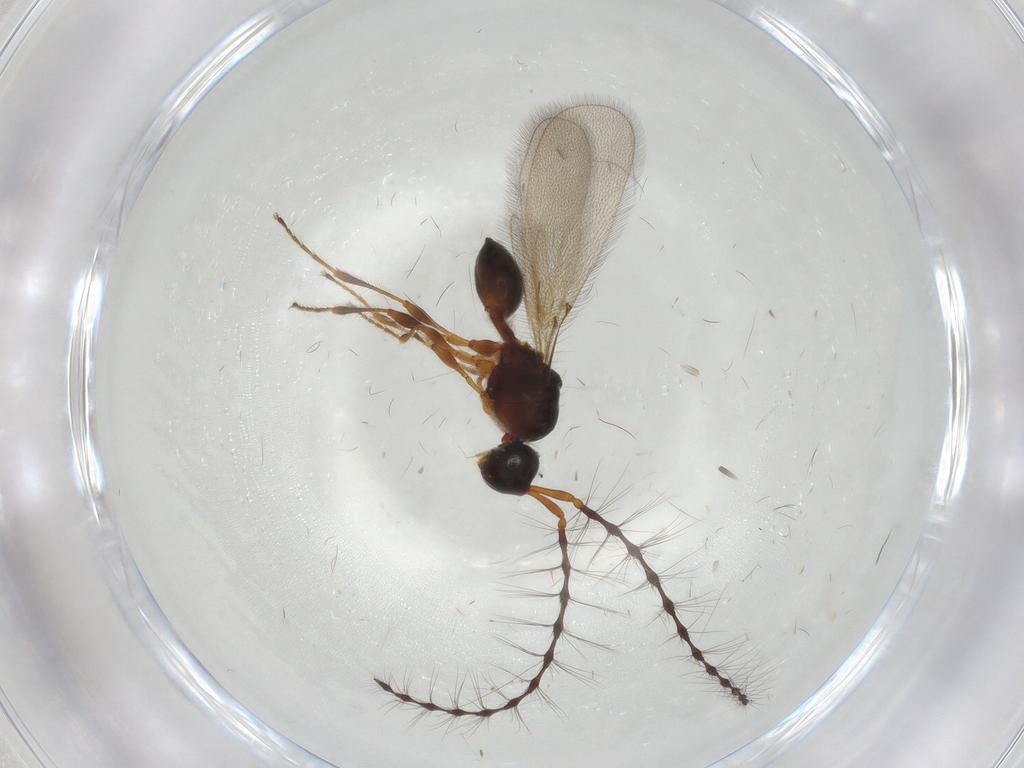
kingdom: Animalia
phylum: Arthropoda
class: Insecta
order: Hymenoptera
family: Diapriidae
